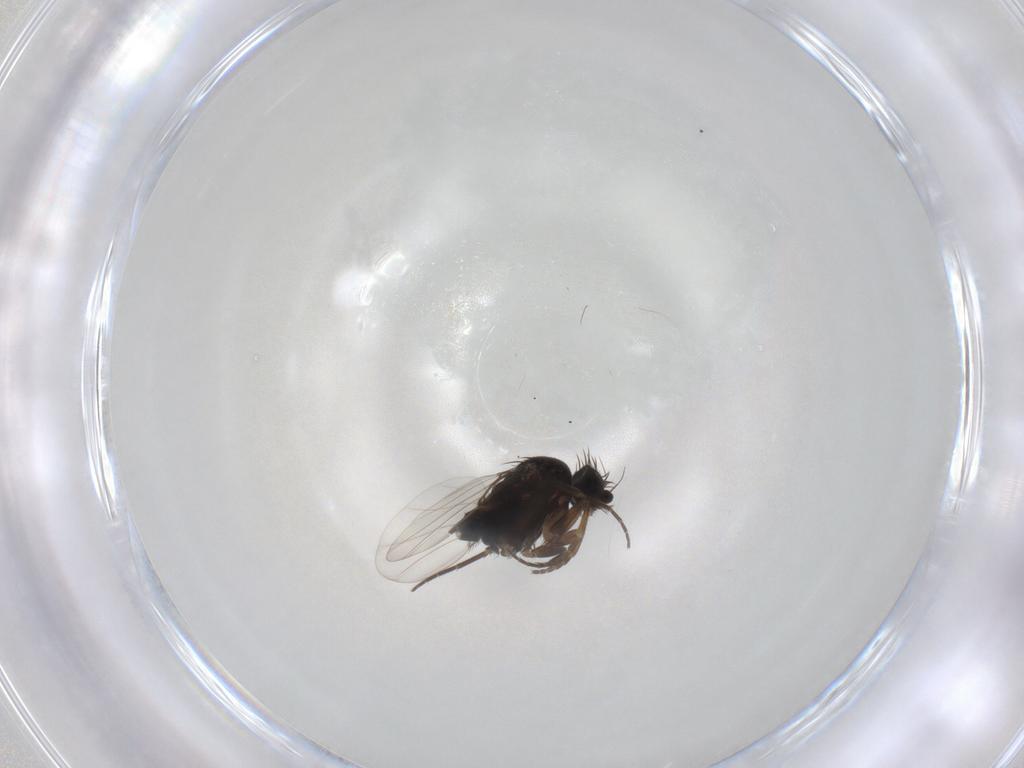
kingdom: Animalia
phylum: Arthropoda
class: Insecta
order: Diptera
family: Phoridae
